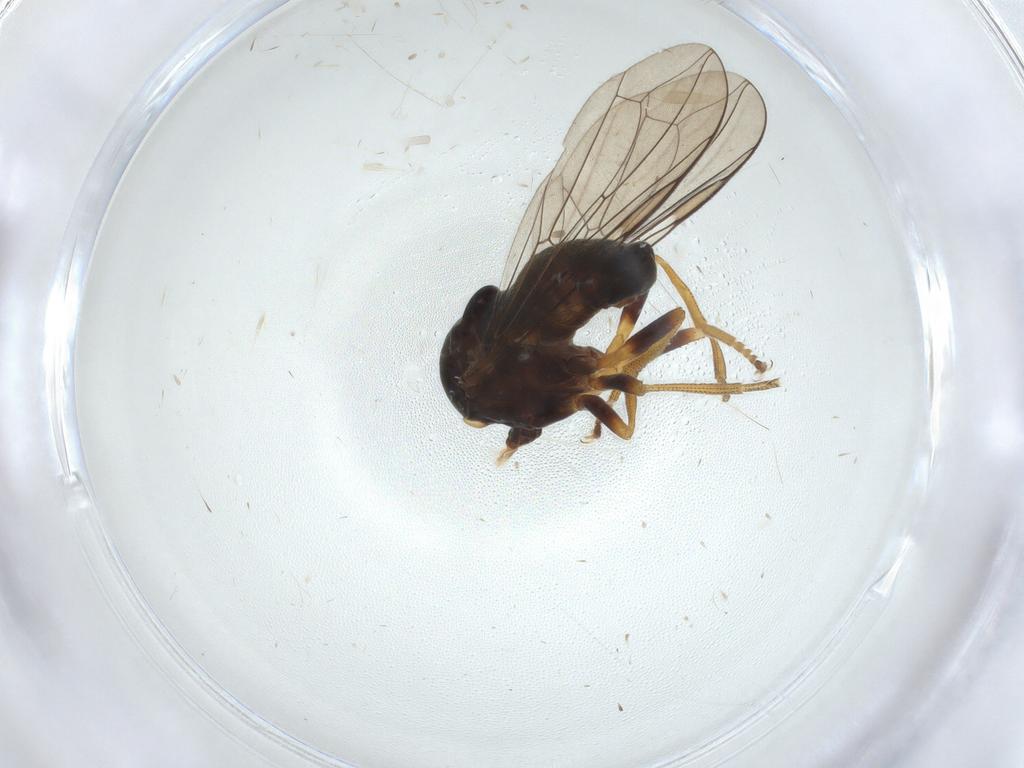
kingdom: Animalia
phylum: Arthropoda
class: Insecta
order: Diptera
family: Pipunculidae
